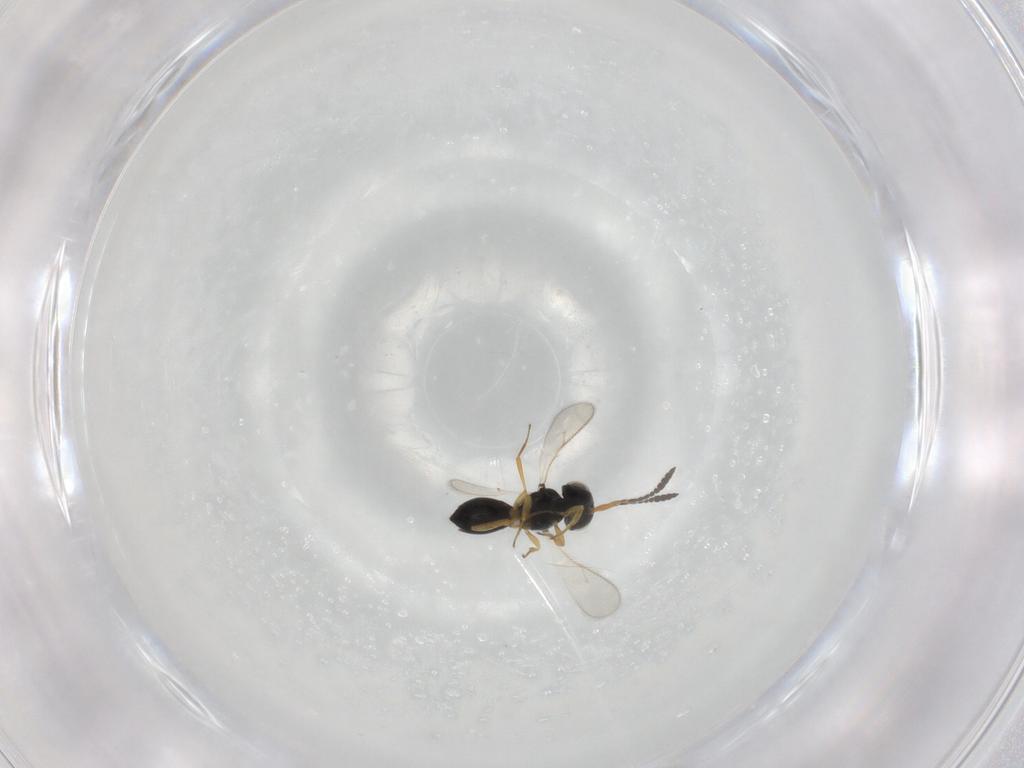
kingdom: Animalia
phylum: Arthropoda
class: Insecta
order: Hymenoptera
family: Scelionidae
